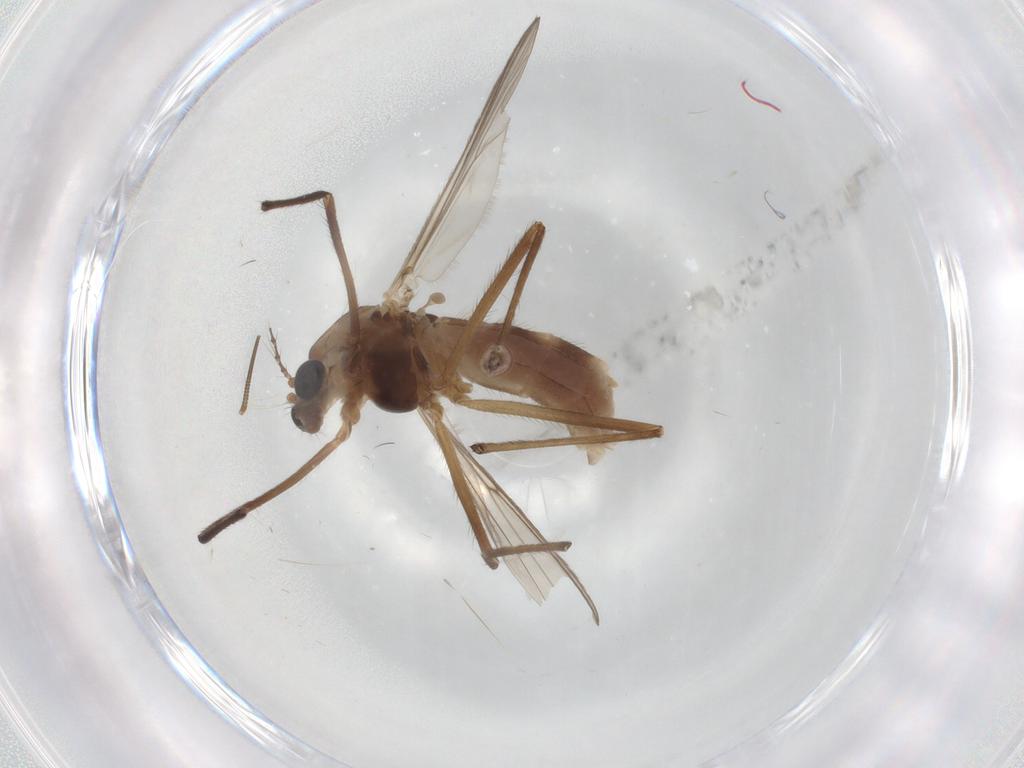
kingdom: Animalia
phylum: Arthropoda
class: Insecta
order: Diptera
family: Chironomidae
